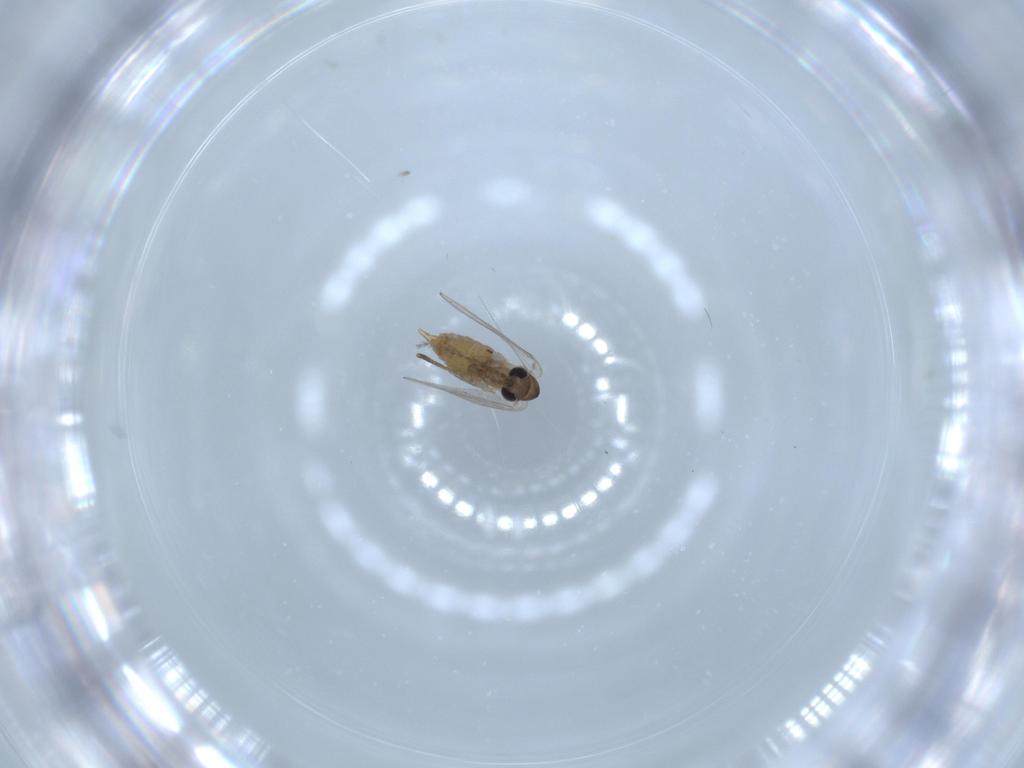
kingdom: Animalia
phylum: Arthropoda
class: Insecta
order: Diptera
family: Psychodidae
